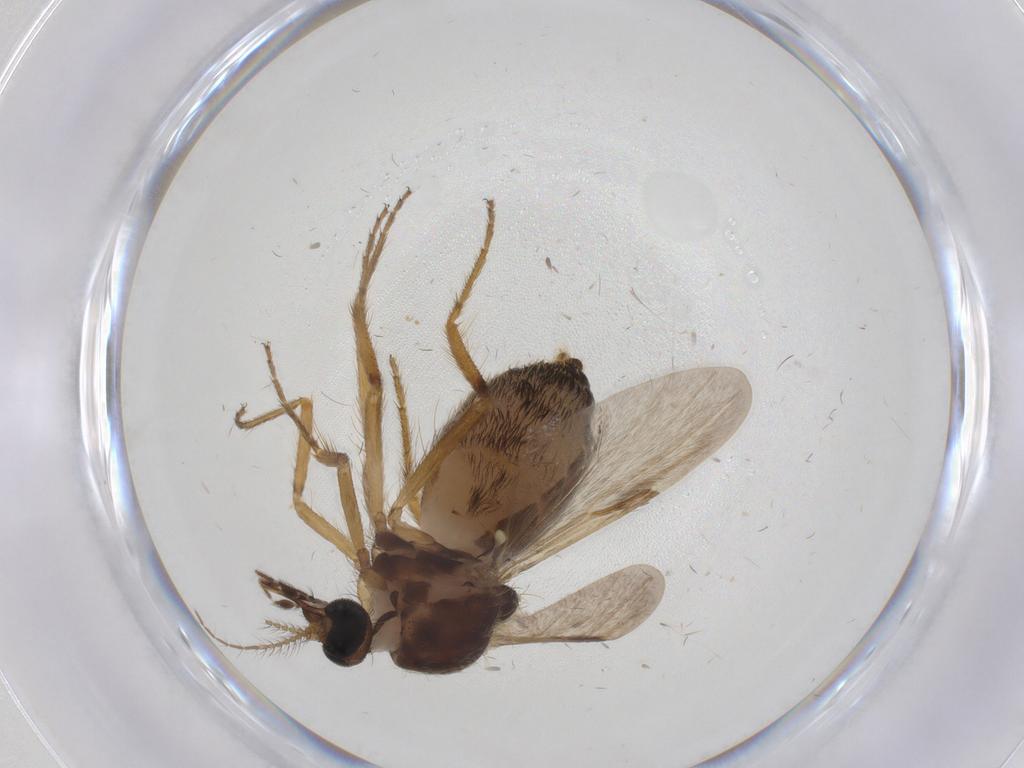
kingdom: Animalia
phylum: Arthropoda
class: Insecta
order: Diptera
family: Ceratopogonidae
